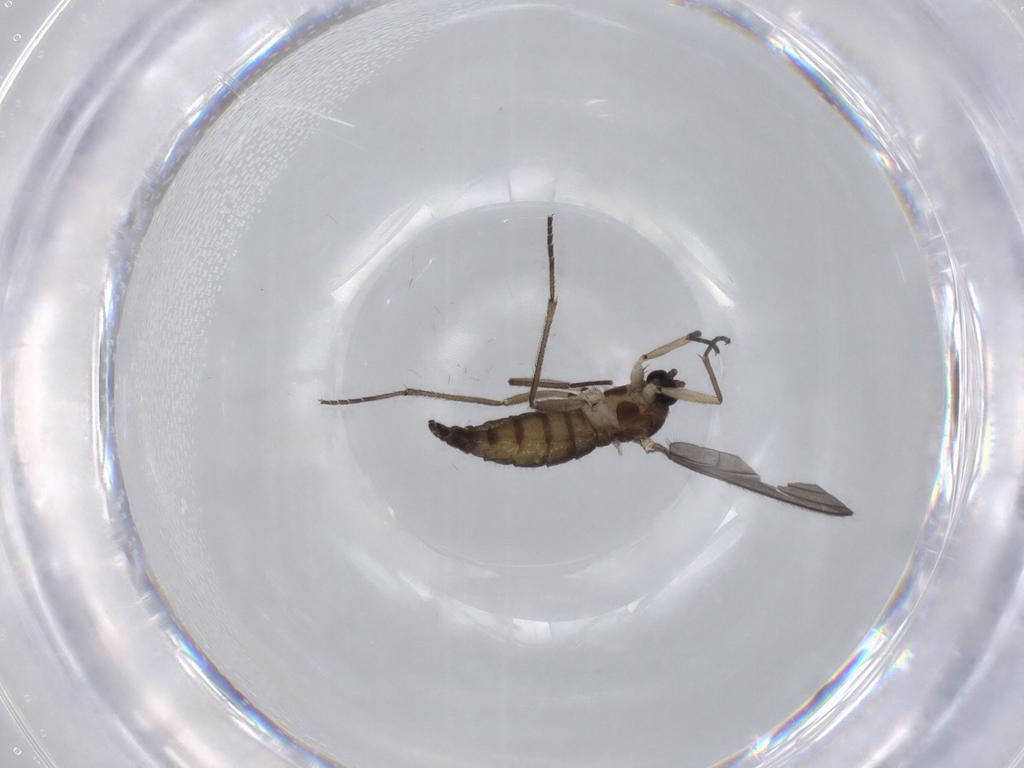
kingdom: Animalia
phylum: Arthropoda
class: Insecta
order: Diptera
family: Sciaridae
